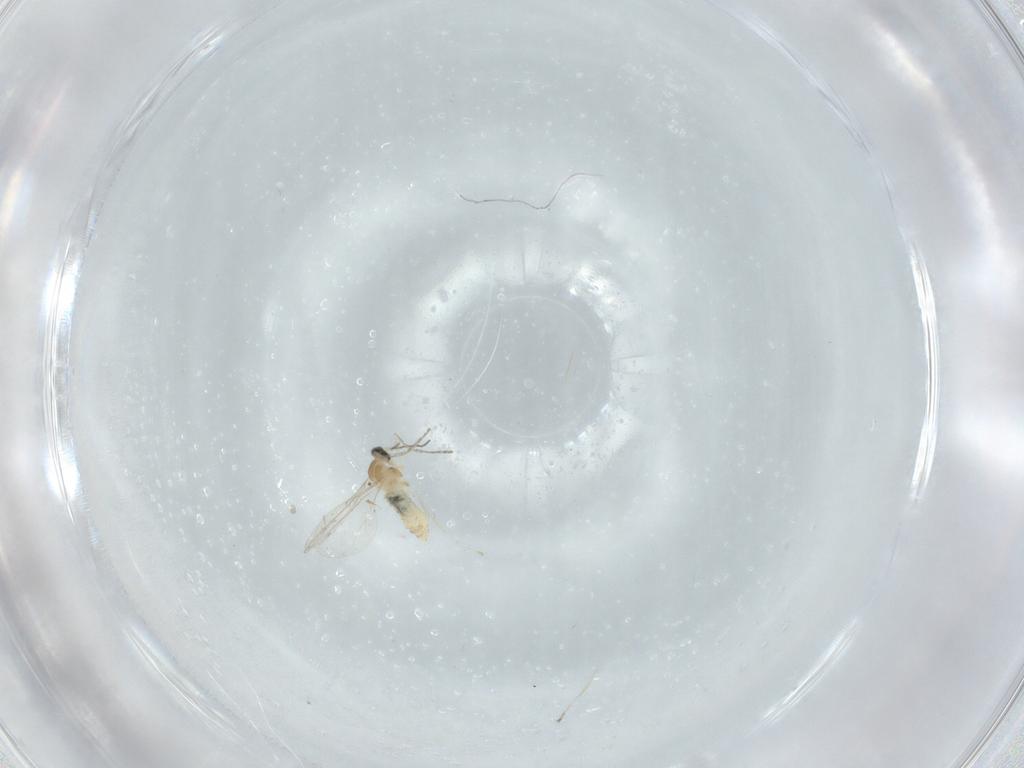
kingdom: Animalia
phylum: Arthropoda
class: Insecta
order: Diptera
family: Cecidomyiidae
